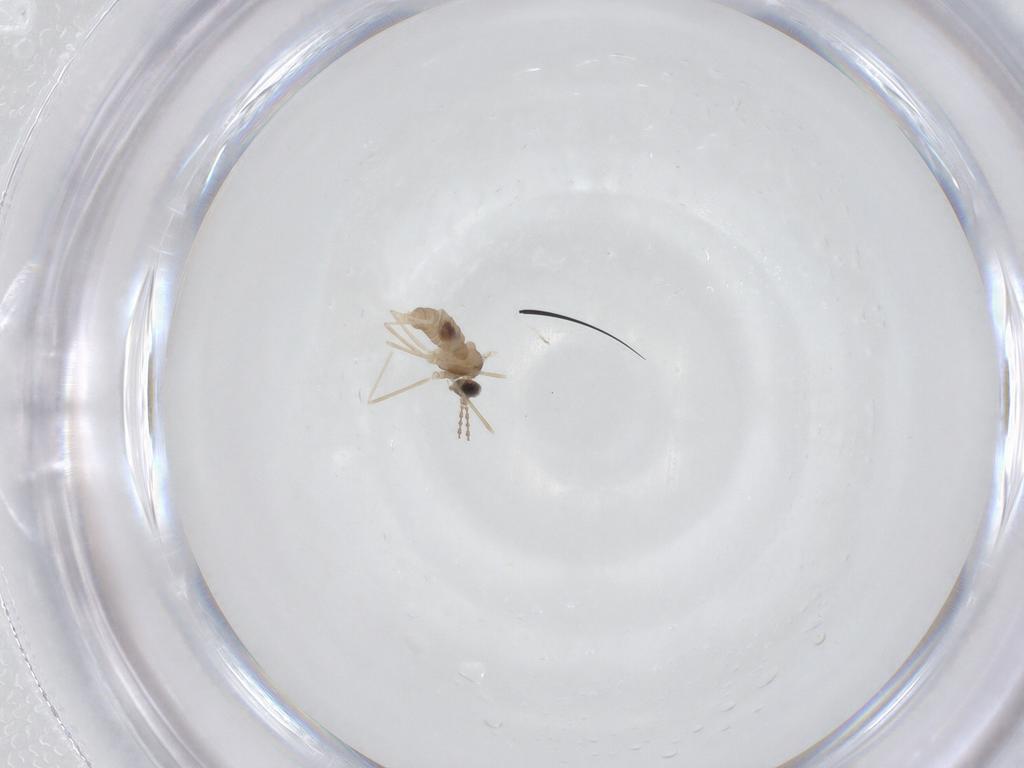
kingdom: Animalia
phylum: Arthropoda
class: Insecta
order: Diptera
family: Cecidomyiidae
